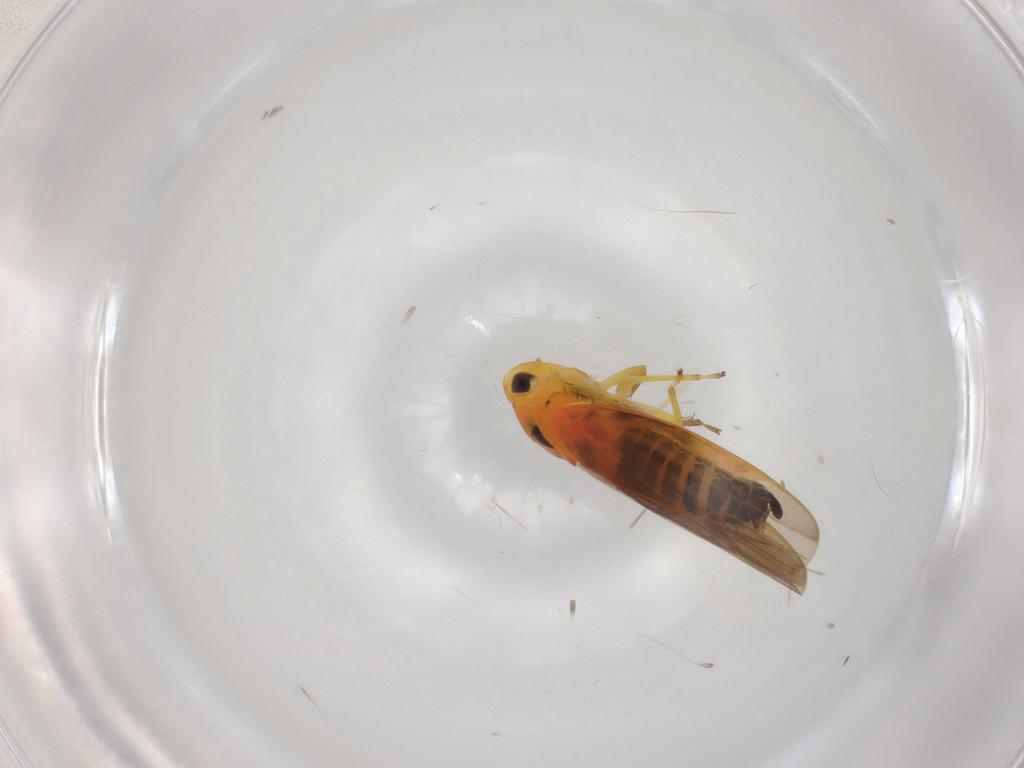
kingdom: Animalia
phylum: Arthropoda
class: Insecta
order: Hemiptera
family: Cicadellidae
